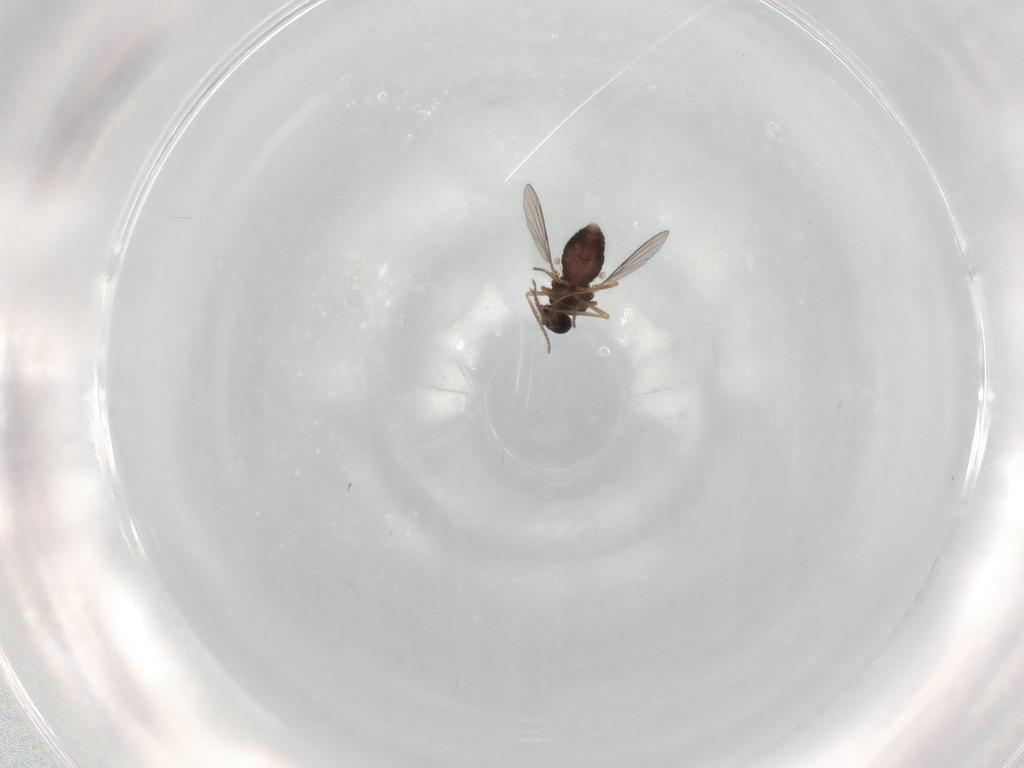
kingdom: Animalia
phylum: Arthropoda
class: Insecta
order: Diptera
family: Ceratopogonidae
